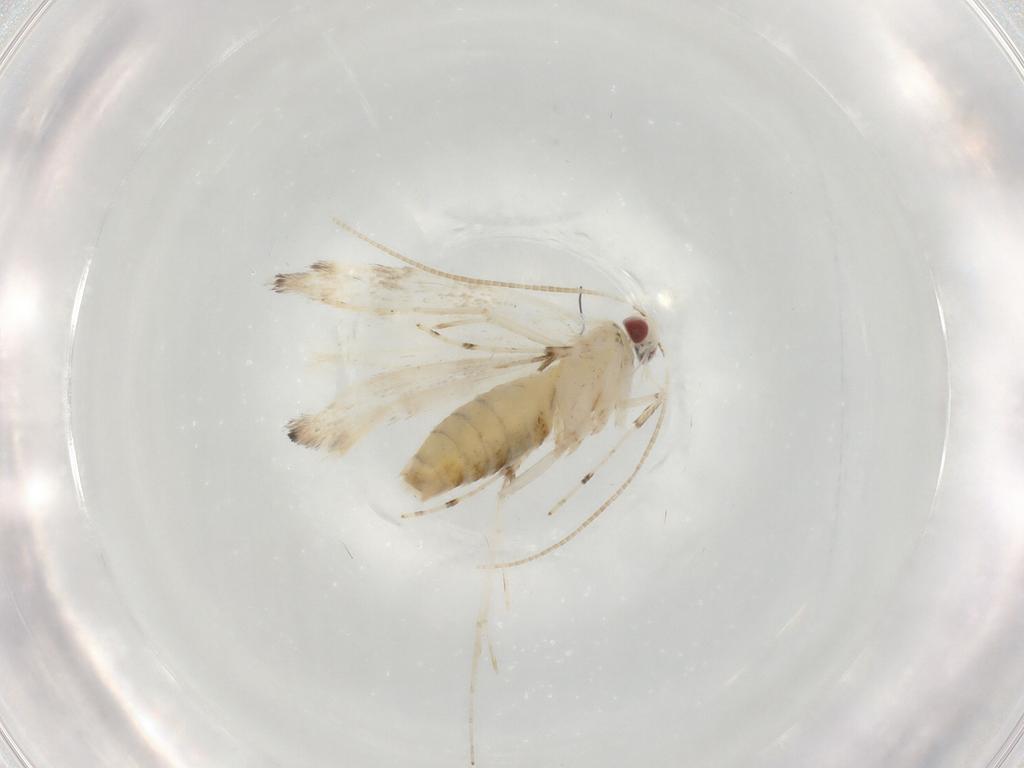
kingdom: Animalia
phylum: Arthropoda
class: Insecta
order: Lepidoptera
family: Gracillariidae
